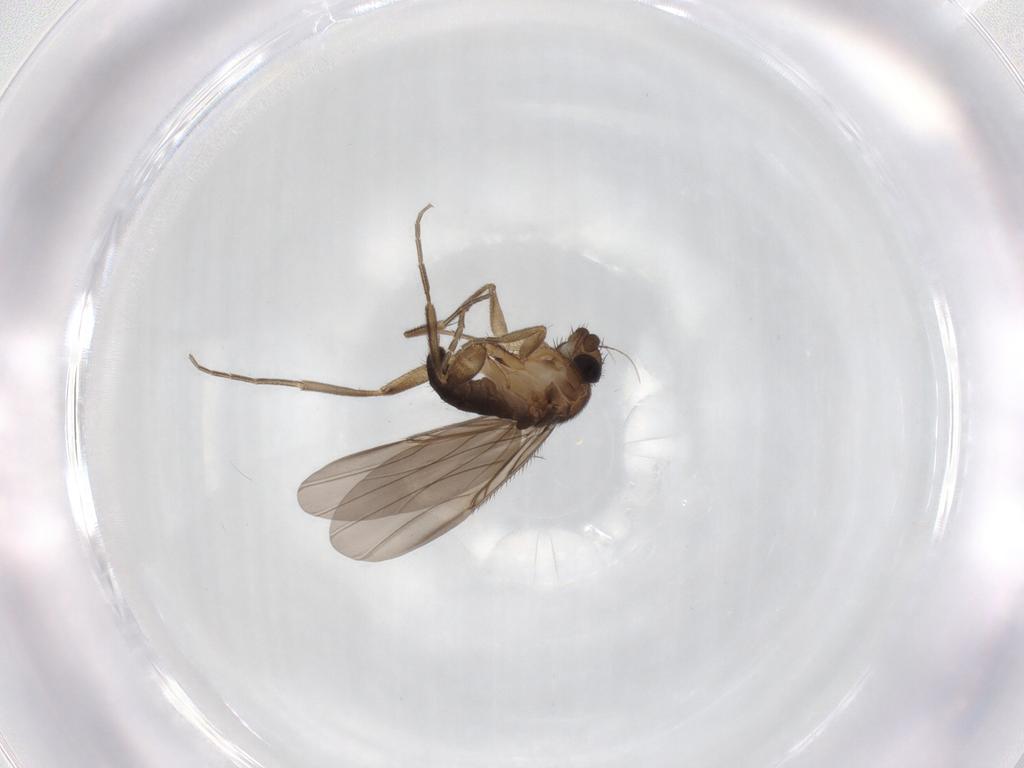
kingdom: Animalia
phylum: Arthropoda
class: Insecta
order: Diptera
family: Phoridae
